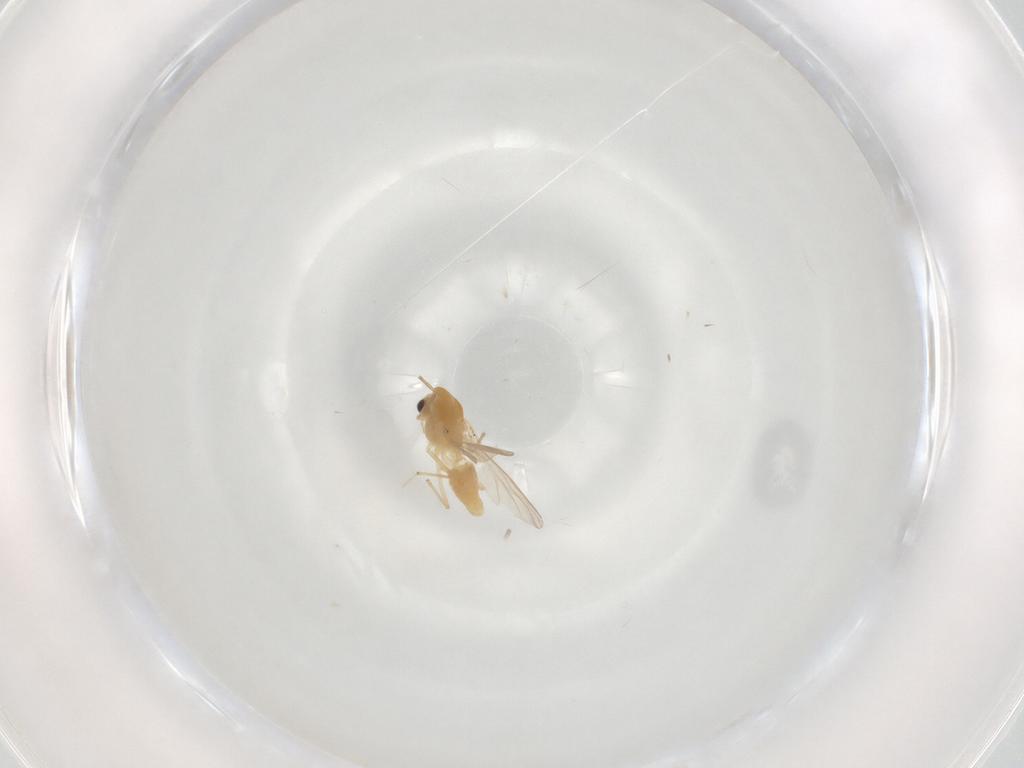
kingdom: Animalia
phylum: Arthropoda
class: Insecta
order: Diptera
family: Chironomidae
